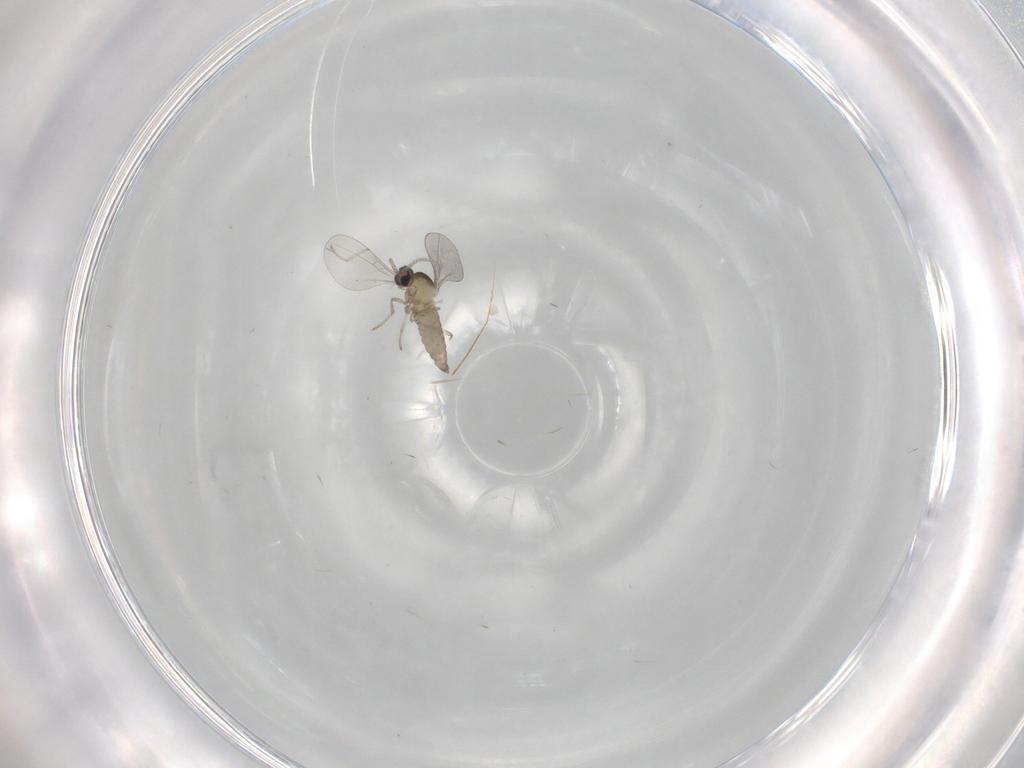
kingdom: Animalia
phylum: Arthropoda
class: Insecta
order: Diptera
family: Cecidomyiidae
